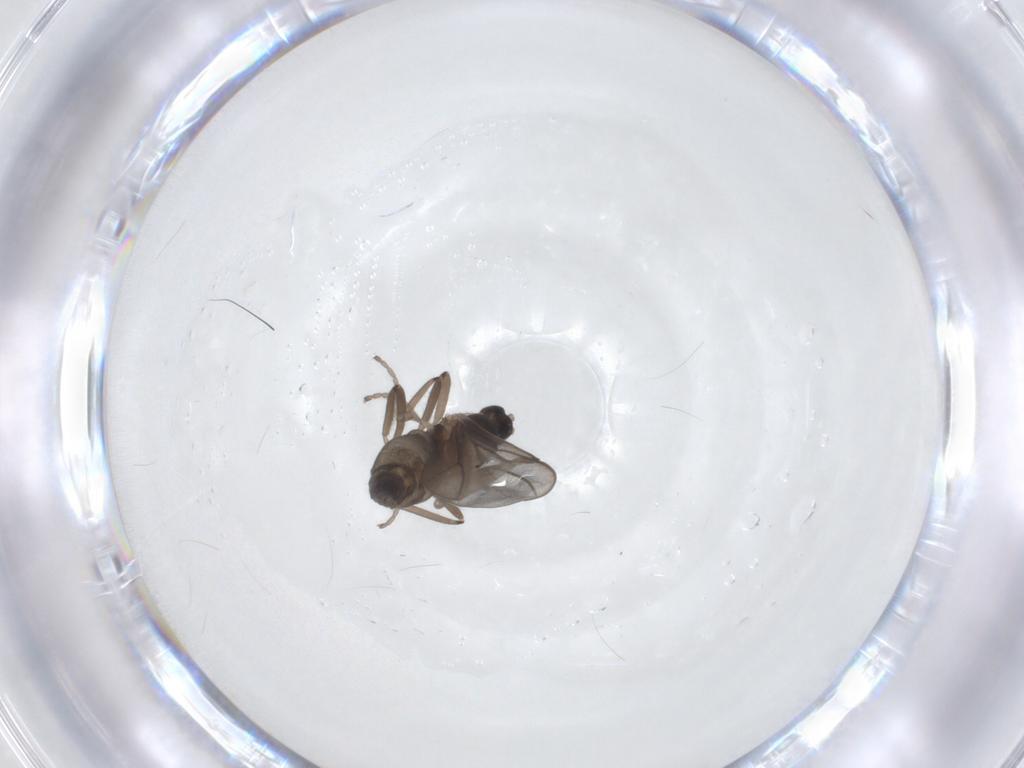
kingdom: Animalia
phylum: Arthropoda
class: Insecta
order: Diptera
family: Cecidomyiidae
